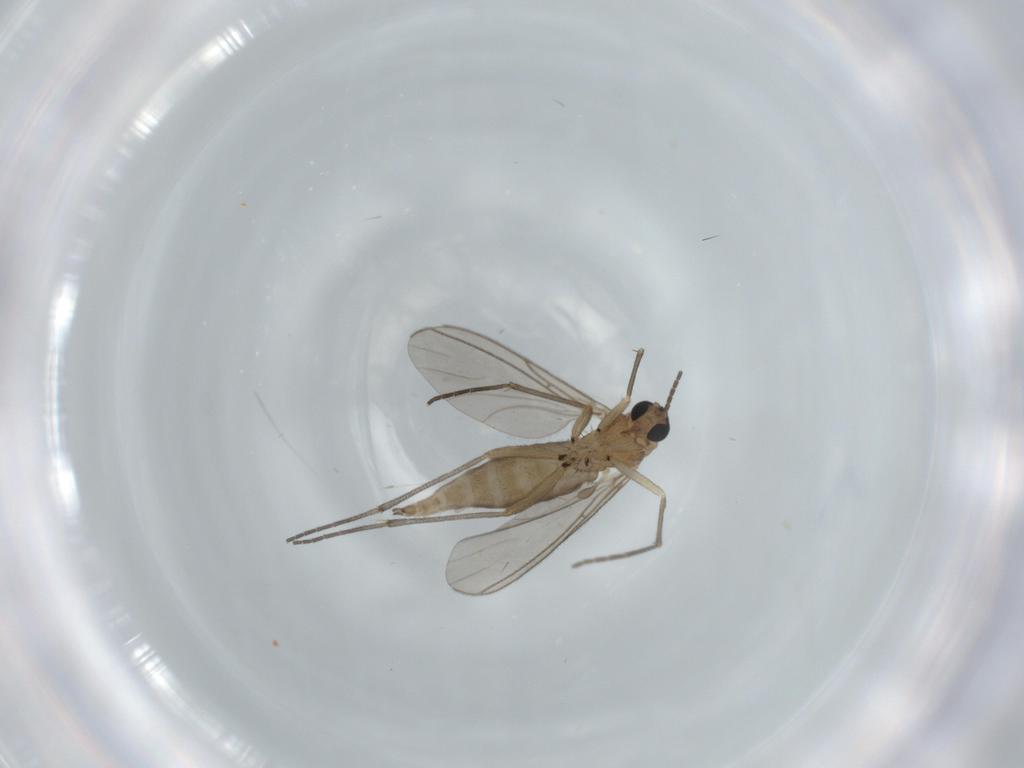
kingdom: Animalia
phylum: Arthropoda
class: Insecta
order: Diptera
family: Sciaridae
